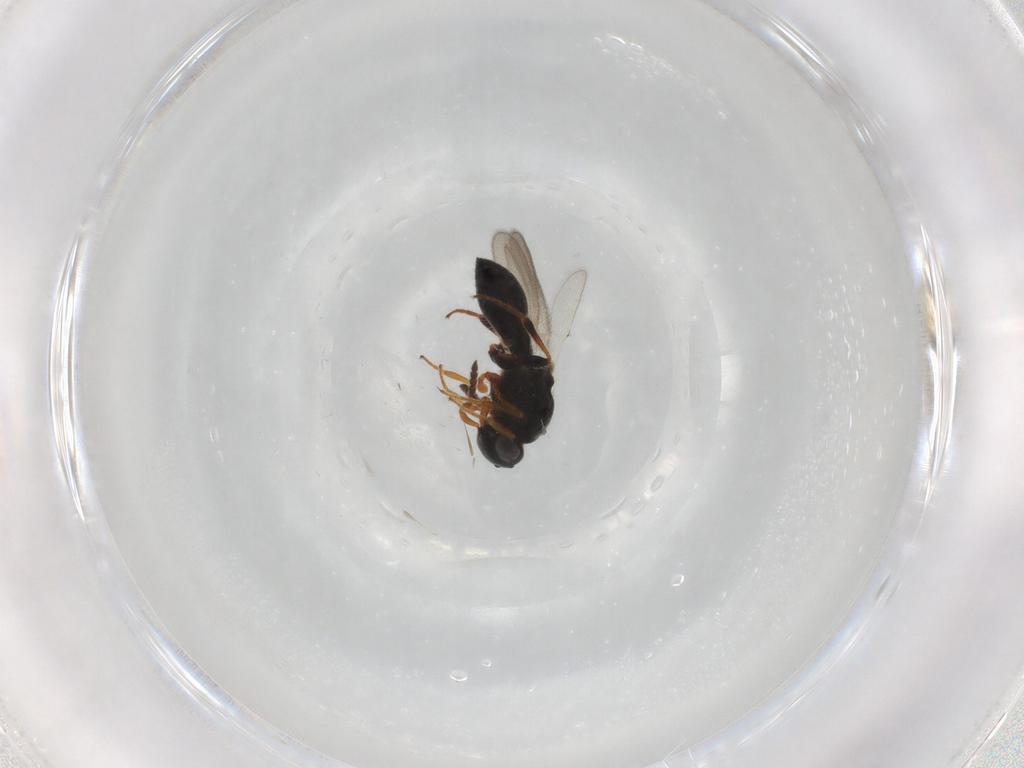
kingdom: Animalia
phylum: Arthropoda
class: Insecta
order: Hymenoptera
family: Platygastridae
